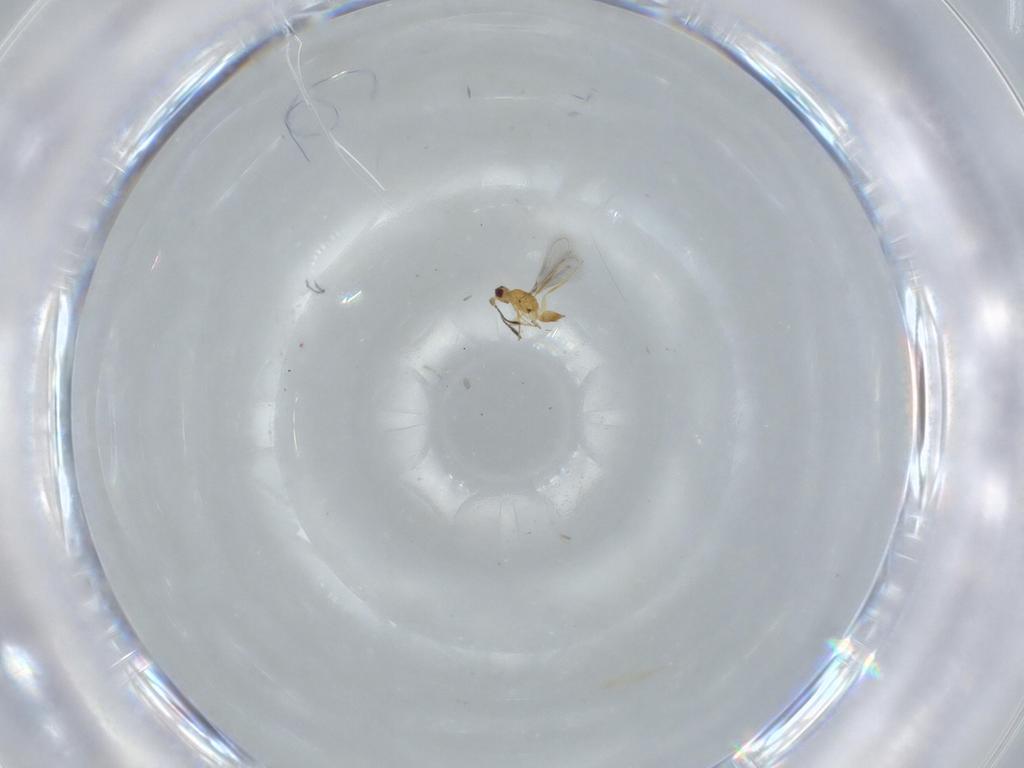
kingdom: Animalia
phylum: Arthropoda
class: Insecta
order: Hymenoptera
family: Mymaridae
